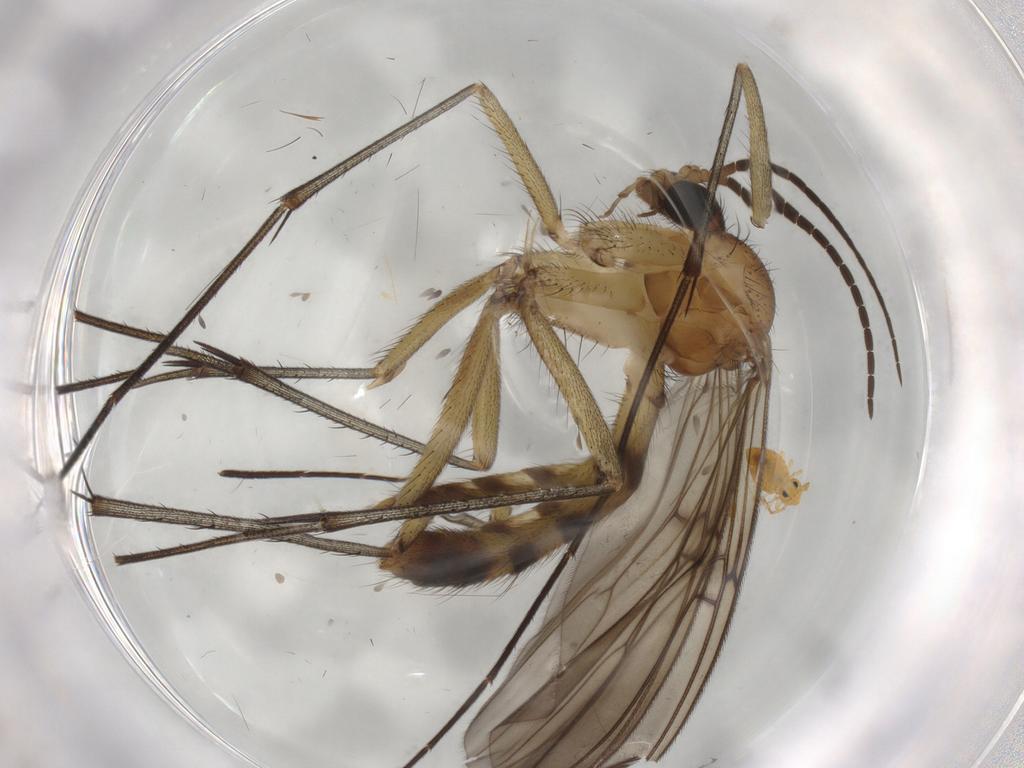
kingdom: Animalia
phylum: Arthropoda
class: Insecta
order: Diptera
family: Mycetophilidae
